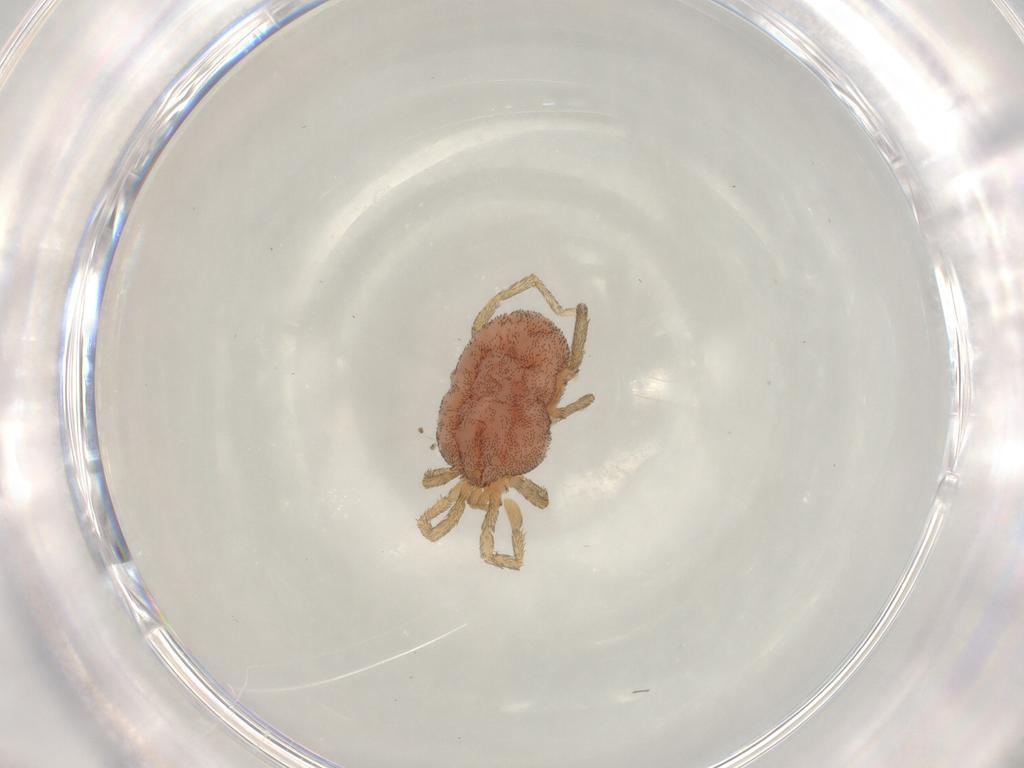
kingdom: Animalia
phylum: Arthropoda
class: Arachnida
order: Trombidiformes
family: Erythraeidae
